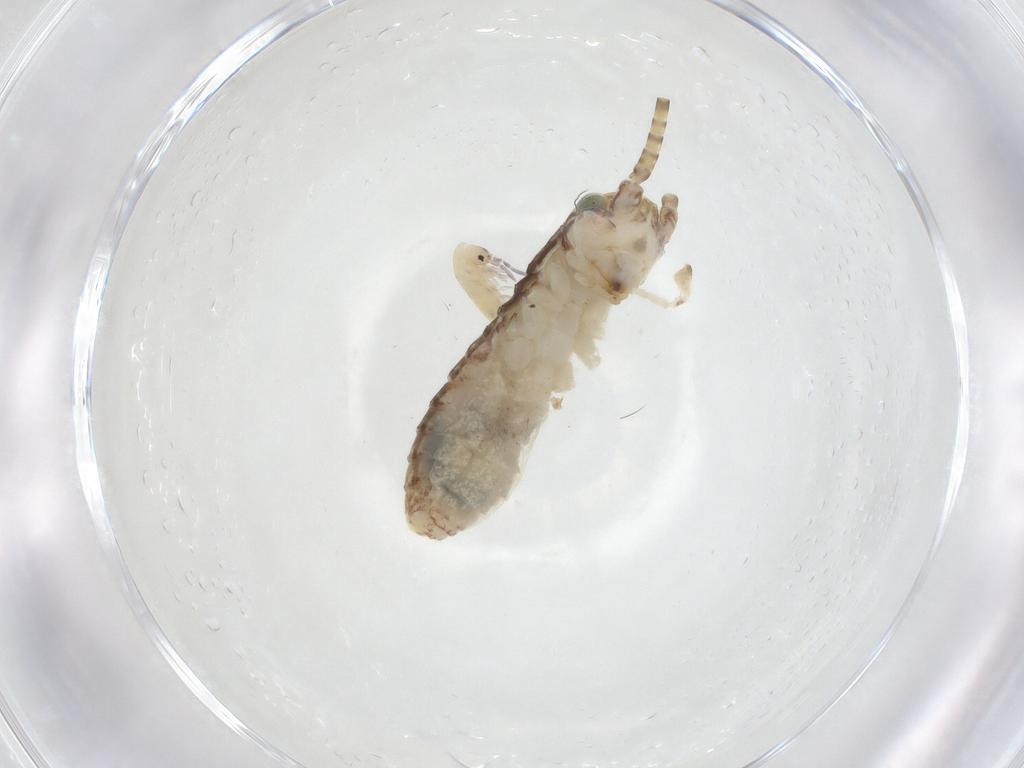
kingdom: Animalia
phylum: Arthropoda
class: Insecta
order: Orthoptera
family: Gryllidae
